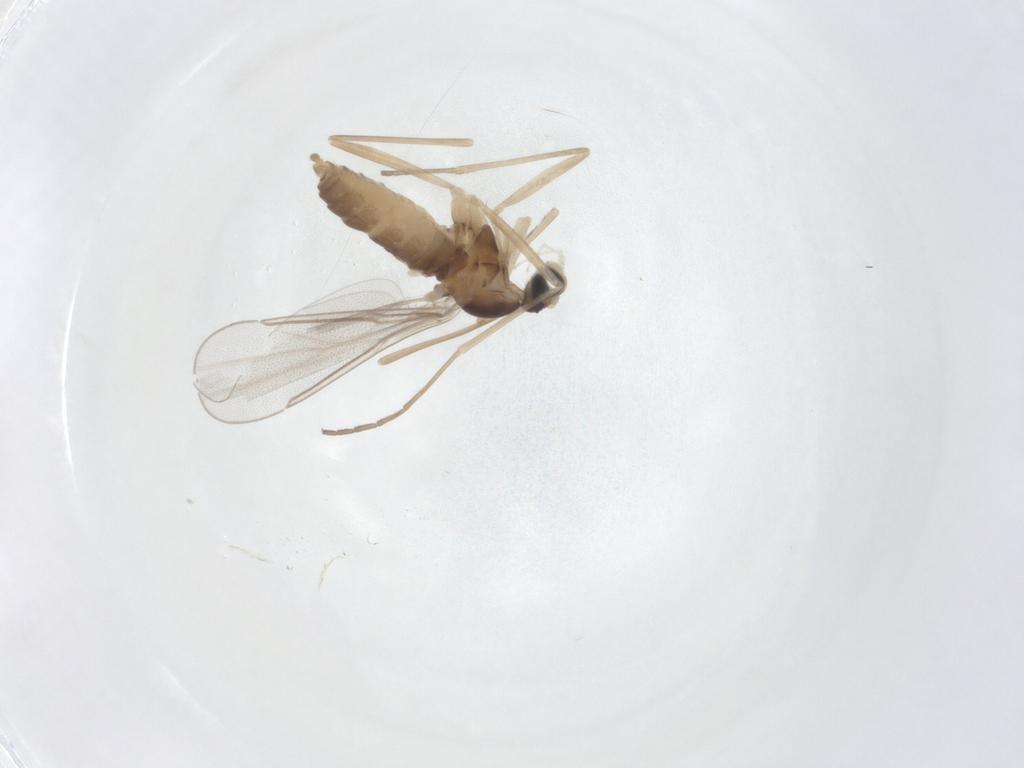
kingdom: Animalia
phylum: Arthropoda
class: Insecta
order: Diptera
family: Cecidomyiidae
